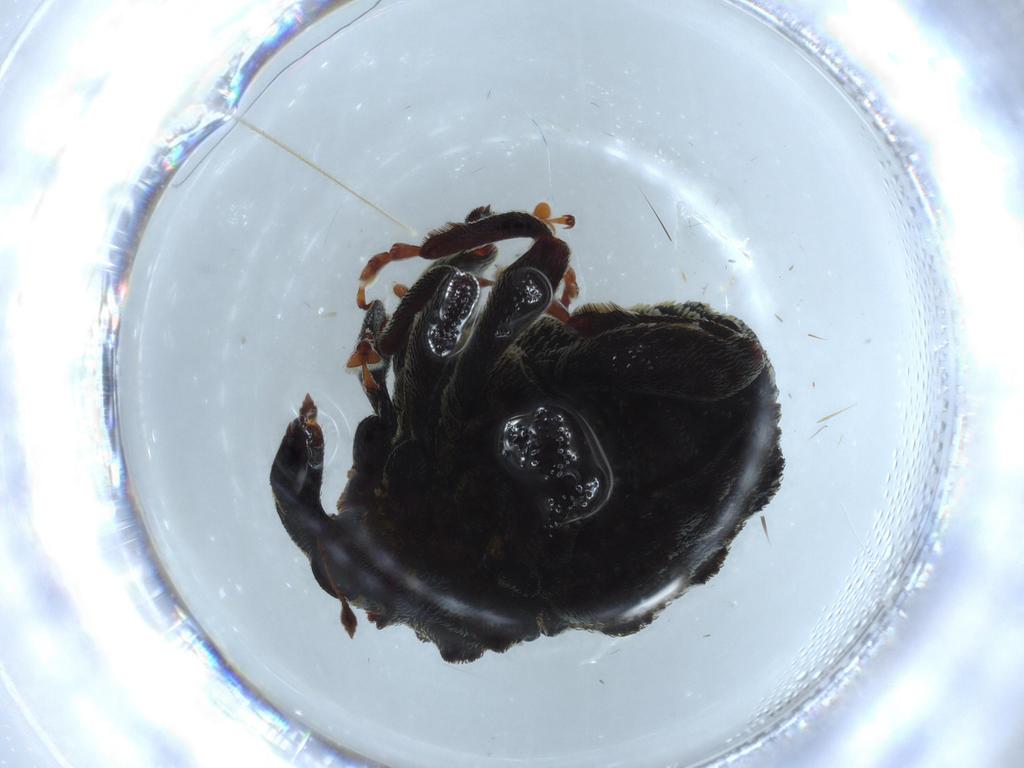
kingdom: Animalia
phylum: Arthropoda
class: Insecta
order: Coleoptera
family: Curculionidae
